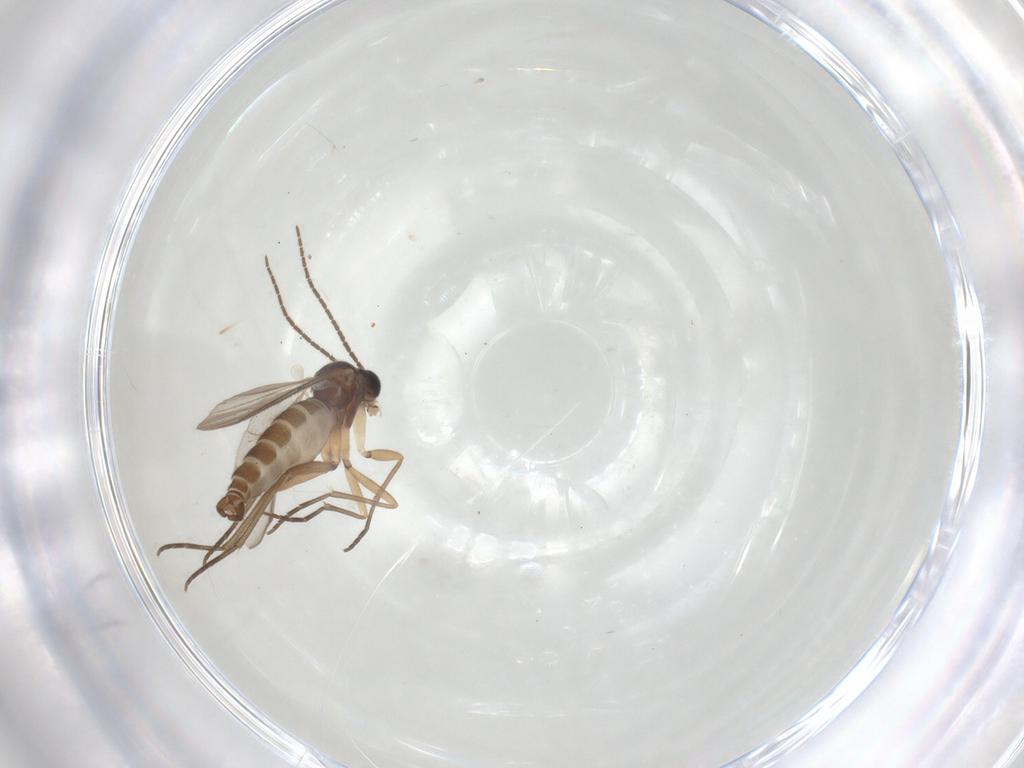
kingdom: Animalia
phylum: Arthropoda
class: Insecta
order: Diptera
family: Sciaridae
